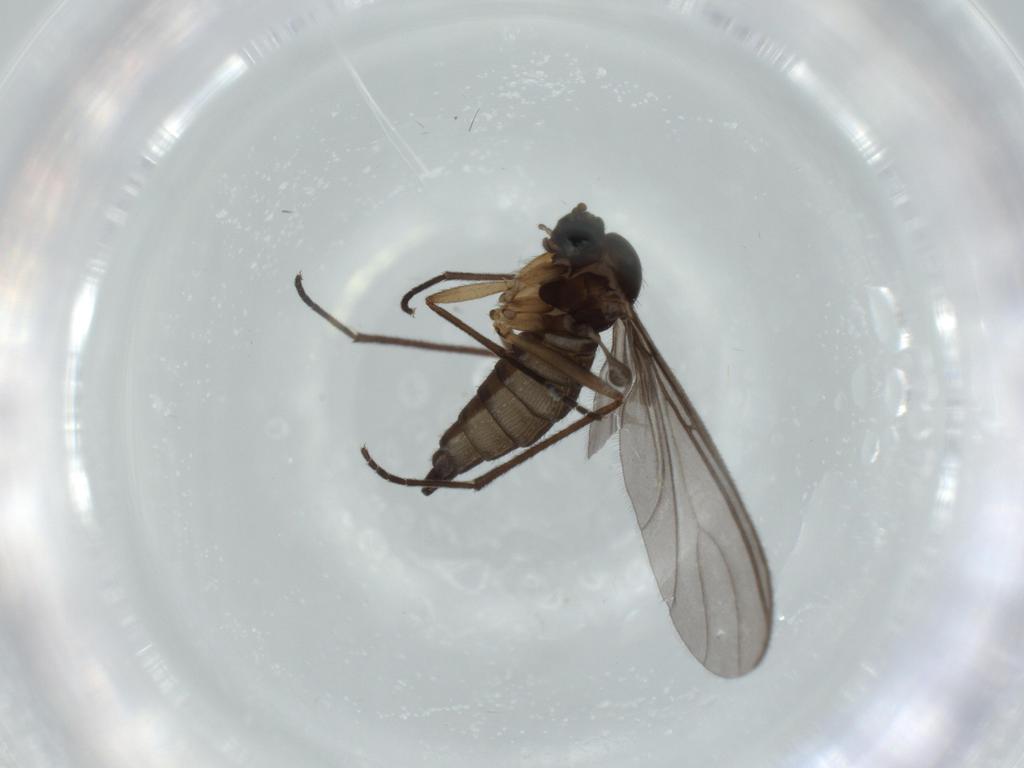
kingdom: Animalia
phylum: Arthropoda
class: Insecta
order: Diptera
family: Sciaridae
